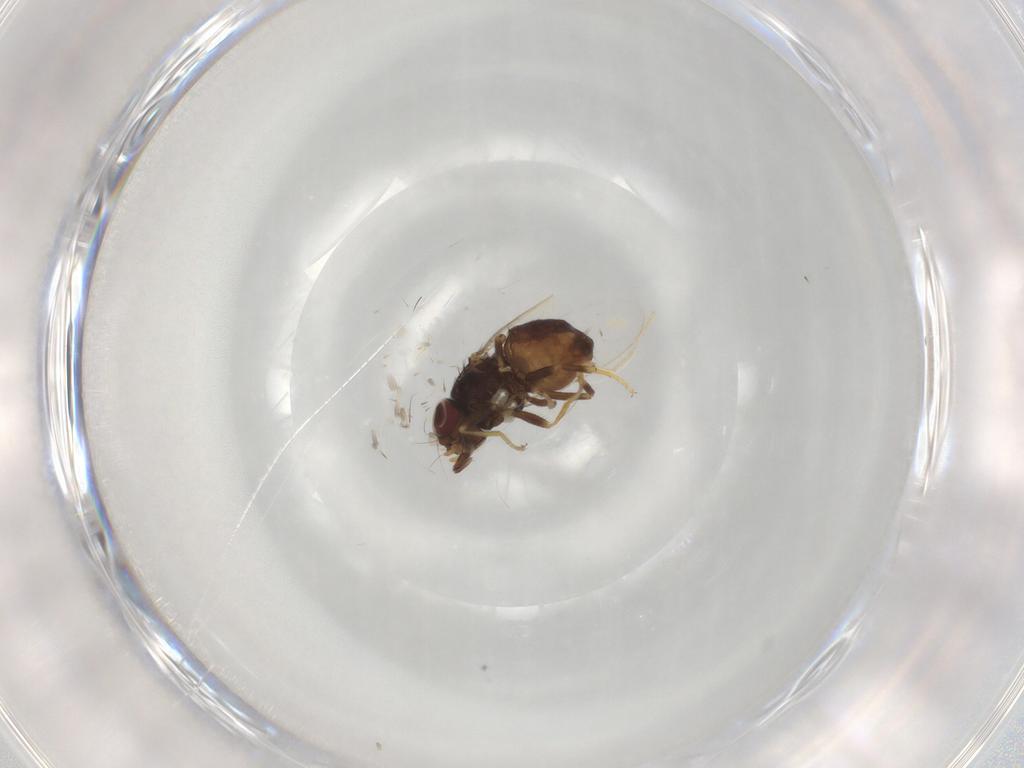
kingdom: Animalia
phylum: Arthropoda
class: Insecta
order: Diptera
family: Chloropidae
